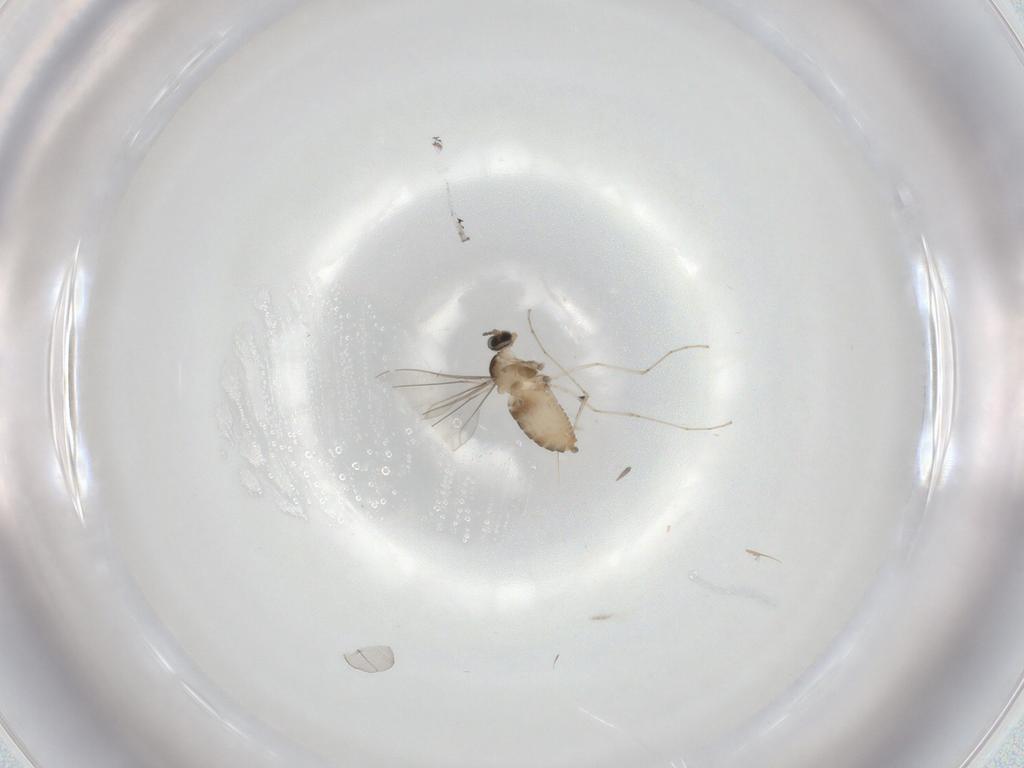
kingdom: Animalia
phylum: Arthropoda
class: Insecta
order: Diptera
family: Cecidomyiidae
